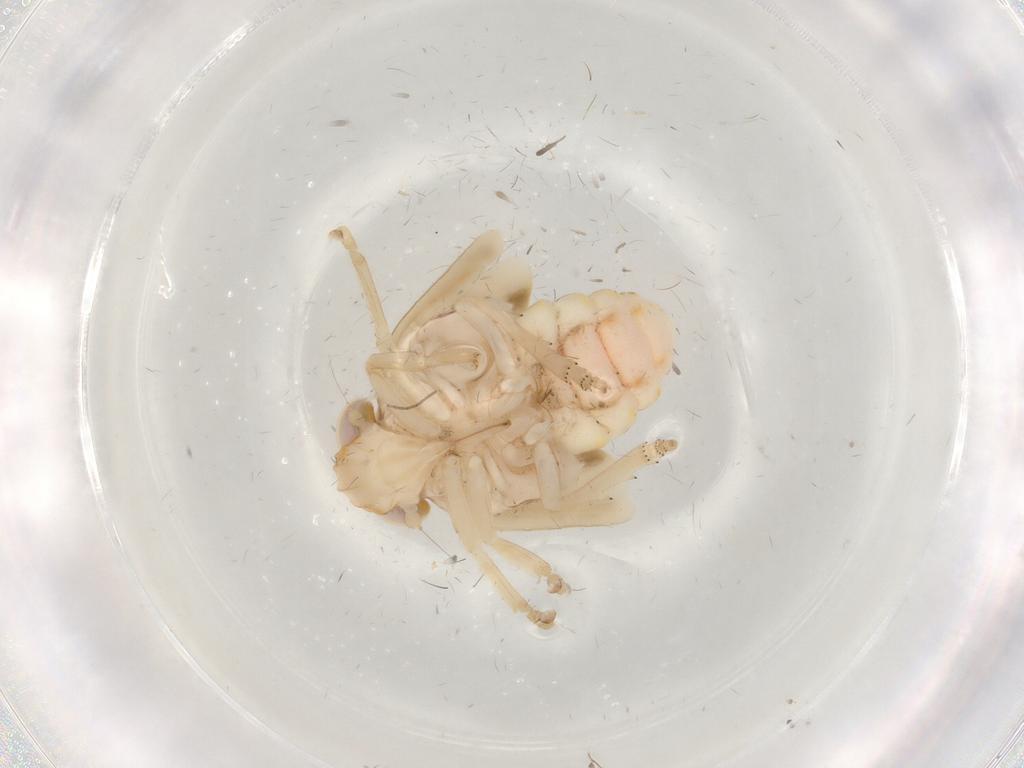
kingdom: Animalia
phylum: Arthropoda
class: Insecta
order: Hemiptera
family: Cicadellidae
